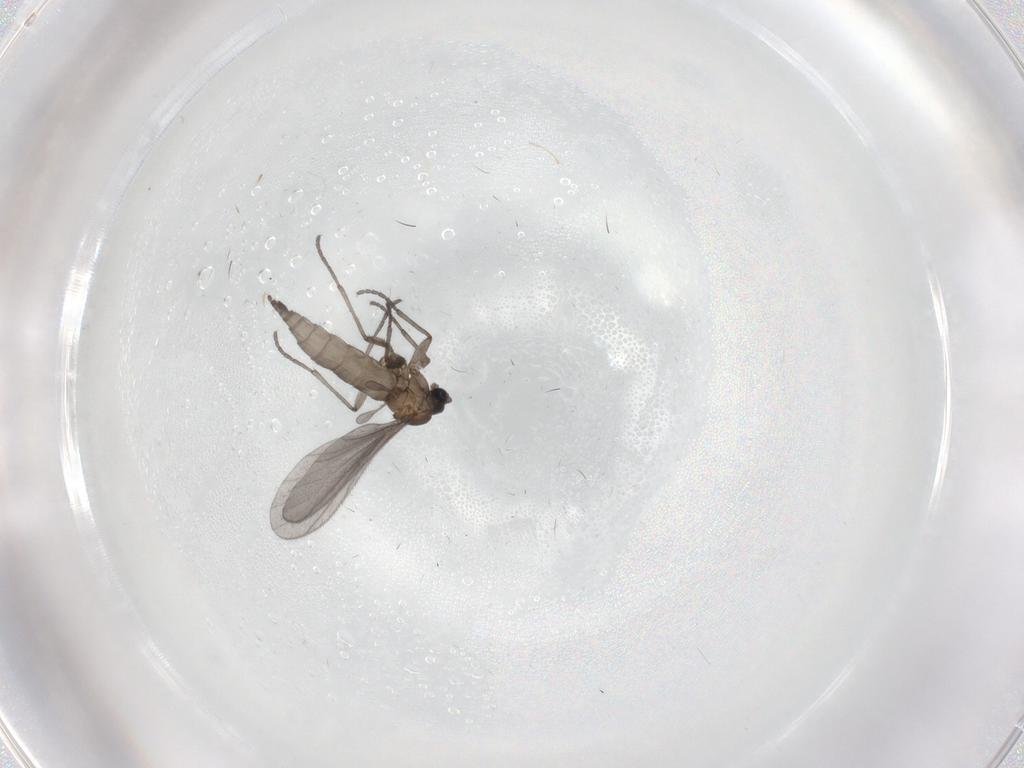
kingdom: Animalia
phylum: Arthropoda
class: Insecta
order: Diptera
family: Sciaridae
